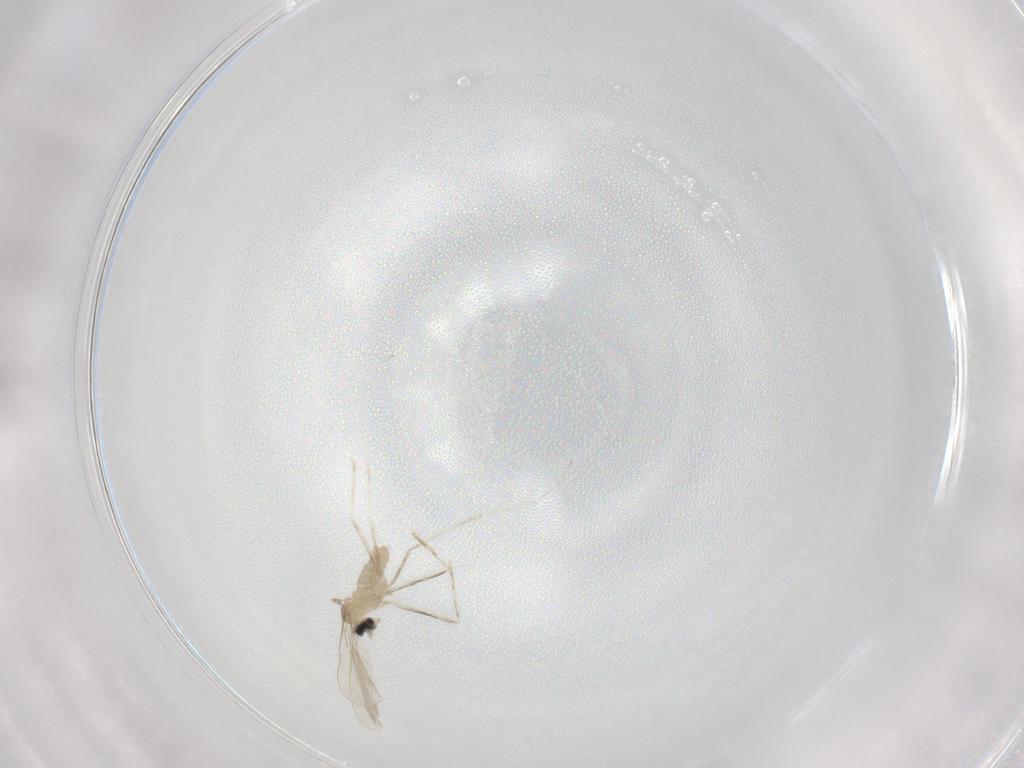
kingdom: Animalia
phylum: Arthropoda
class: Insecta
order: Diptera
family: Cecidomyiidae
